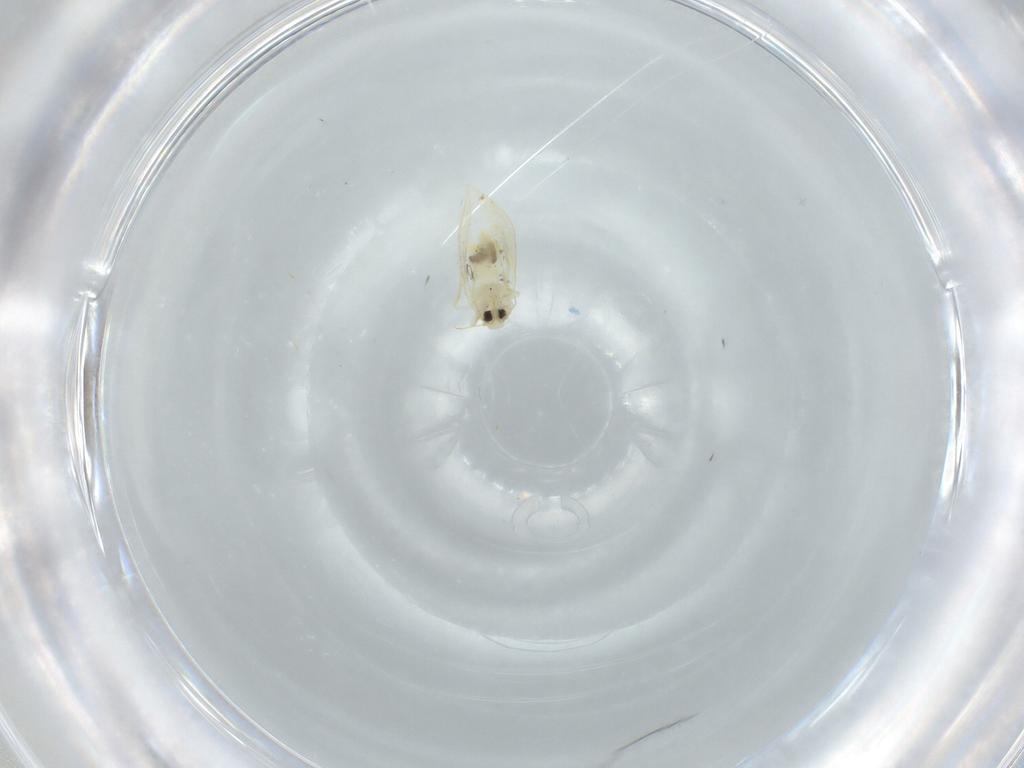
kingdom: Animalia
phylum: Arthropoda
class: Insecta
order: Hemiptera
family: Aleyrodidae
